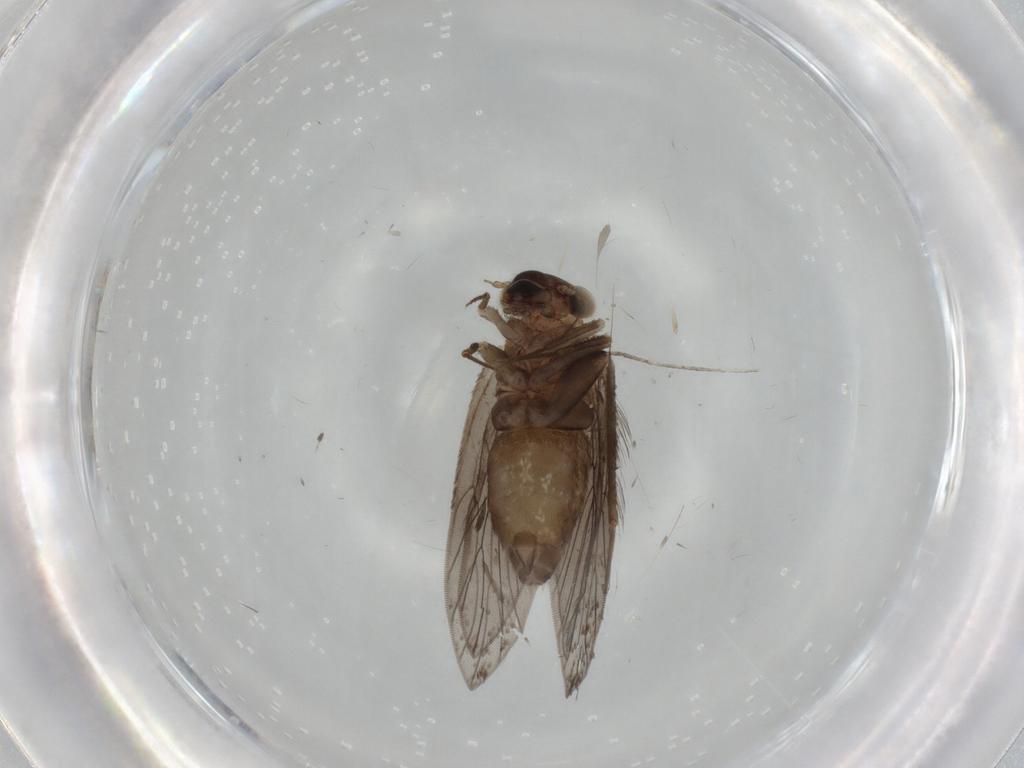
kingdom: Animalia
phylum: Arthropoda
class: Insecta
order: Psocodea
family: Lepidopsocidae
